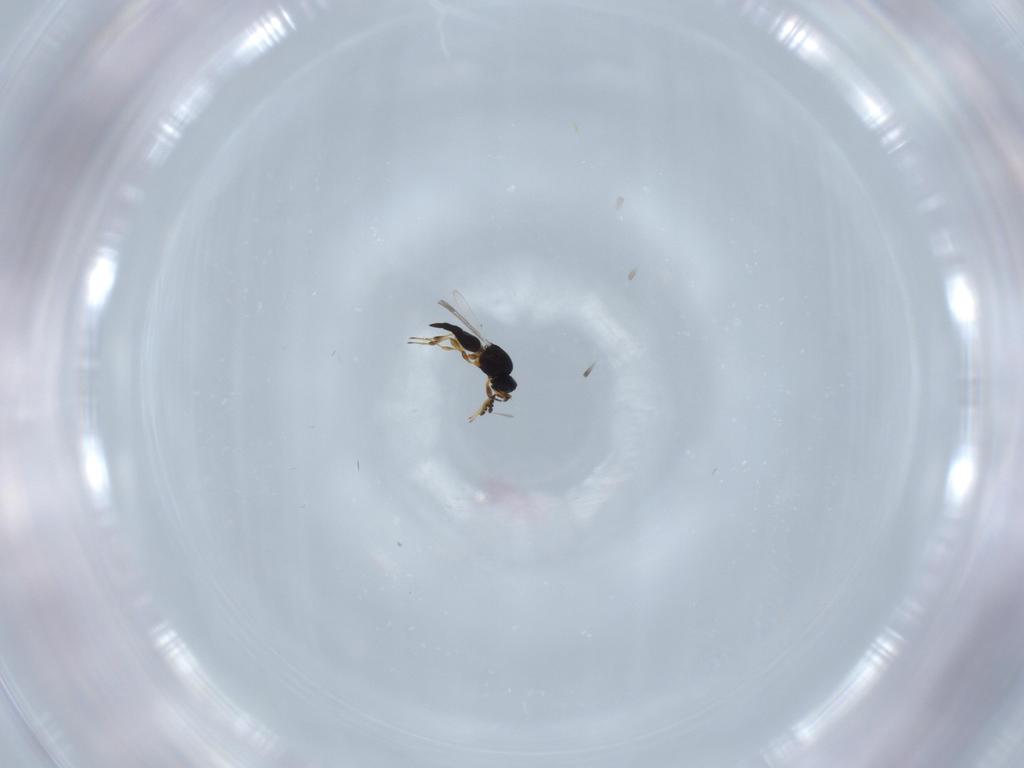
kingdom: Animalia
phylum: Arthropoda
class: Insecta
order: Hymenoptera
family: Platygastridae
